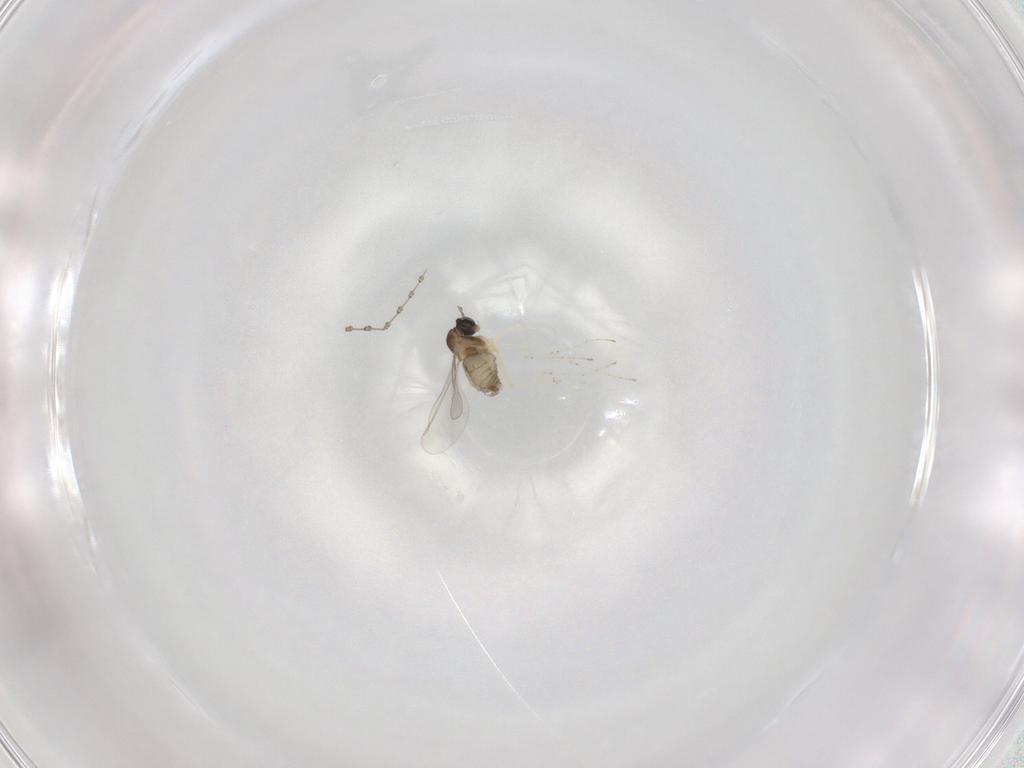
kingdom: Animalia
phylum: Arthropoda
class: Insecta
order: Diptera
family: Cecidomyiidae
